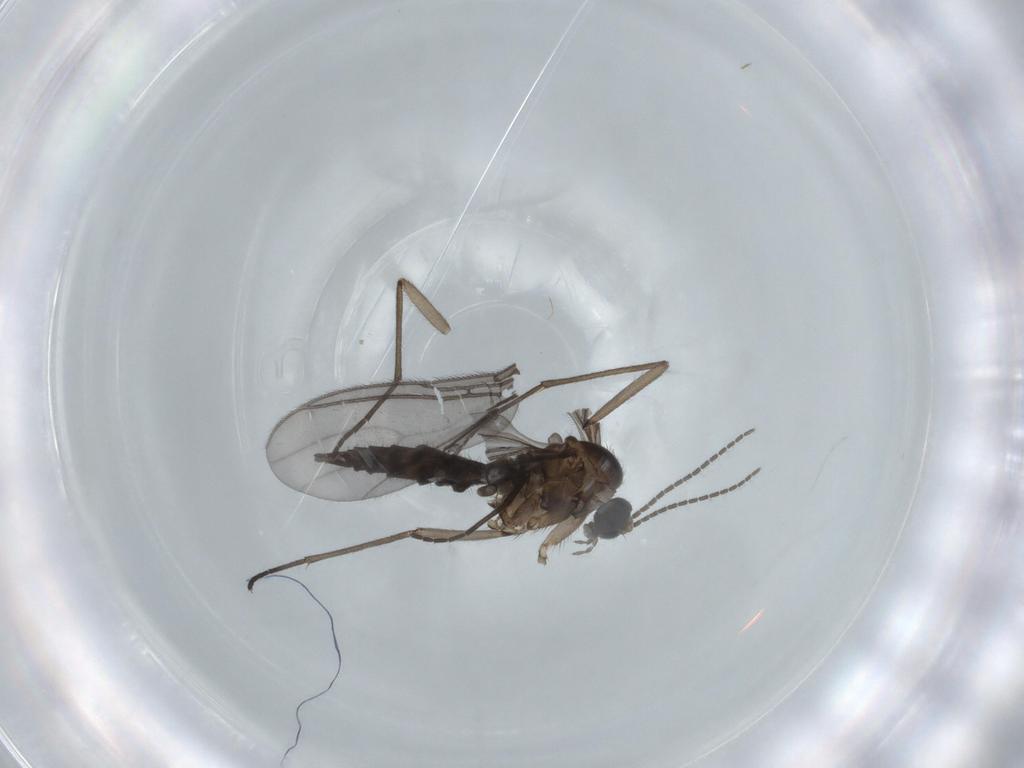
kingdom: Animalia
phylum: Arthropoda
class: Insecta
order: Diptera
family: Sciaridae
